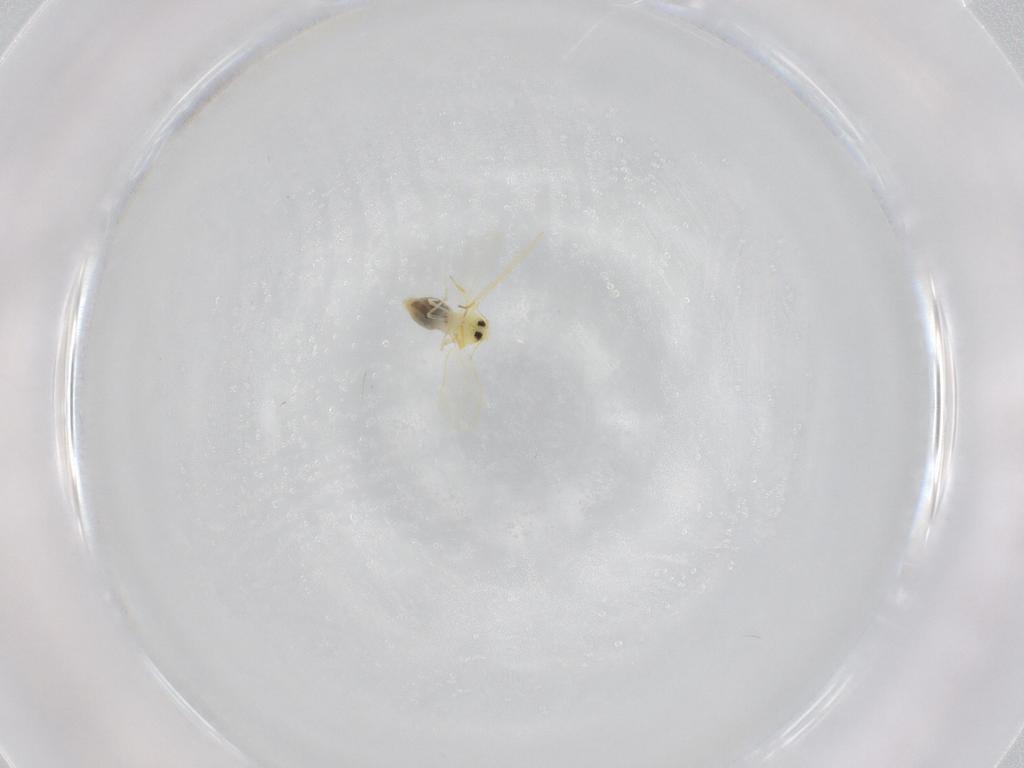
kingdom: Animalia
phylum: Arthropoda
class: Insecta
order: Hemiptera
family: Aleyrodidae
